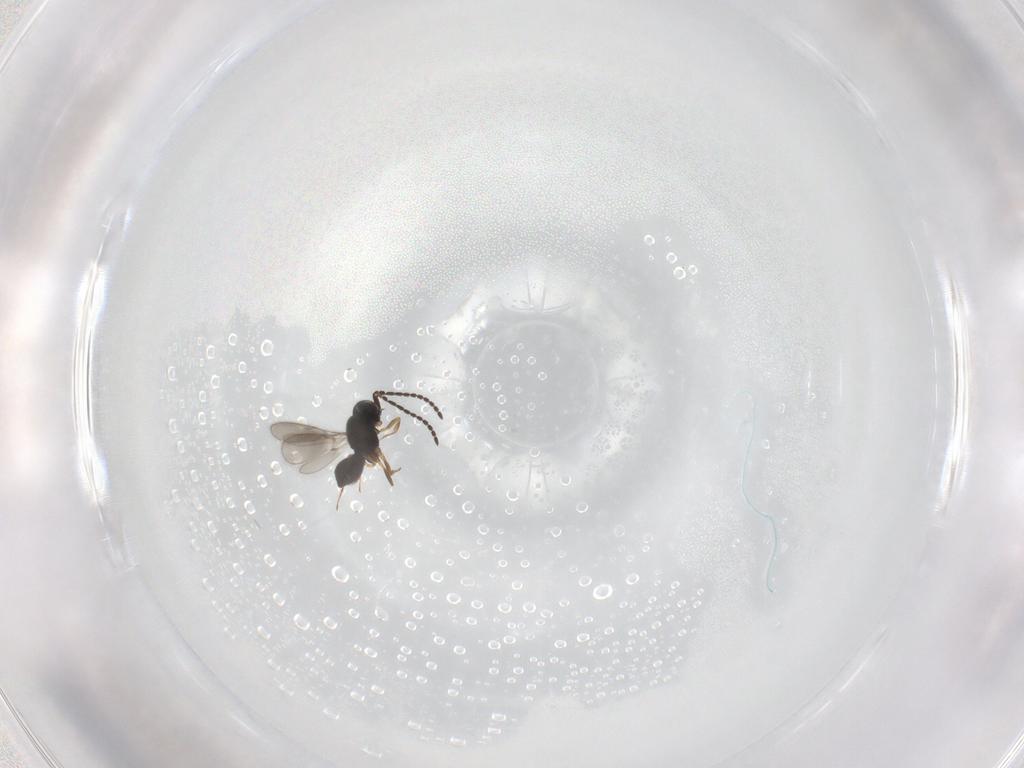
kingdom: Animalia
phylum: Arthropoda
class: Insecta
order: Hymenoptera
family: Scelionidae
